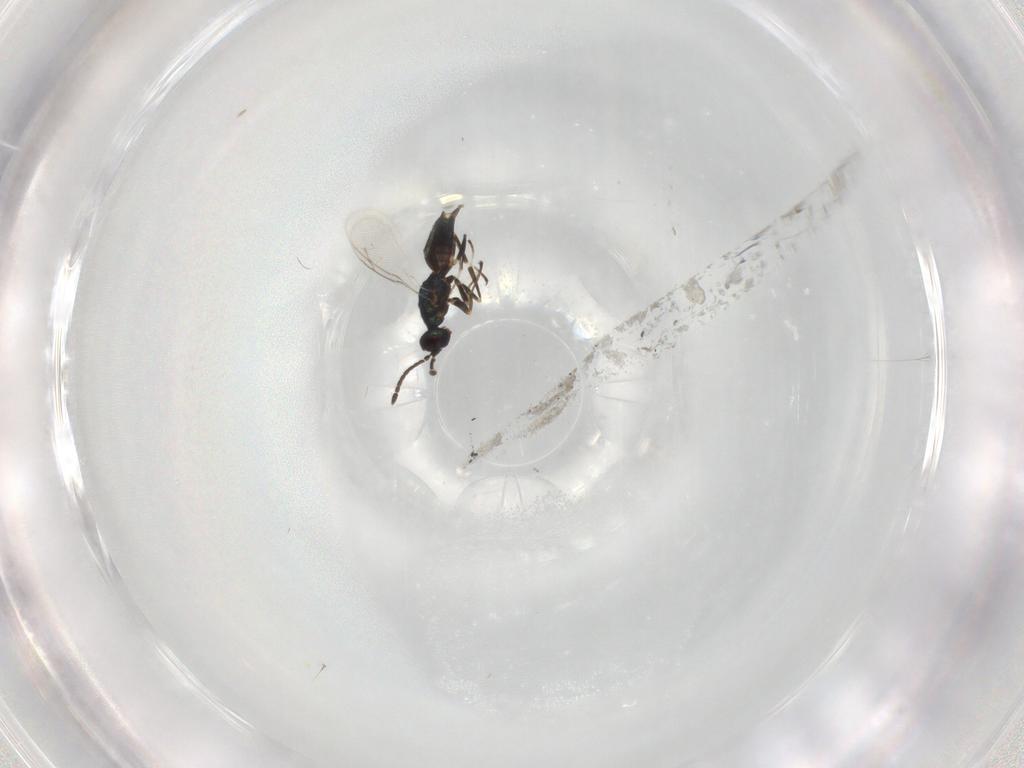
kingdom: Animalia
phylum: Arthropoda
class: Insecta
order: Hymenoptera
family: Eupelmidae
